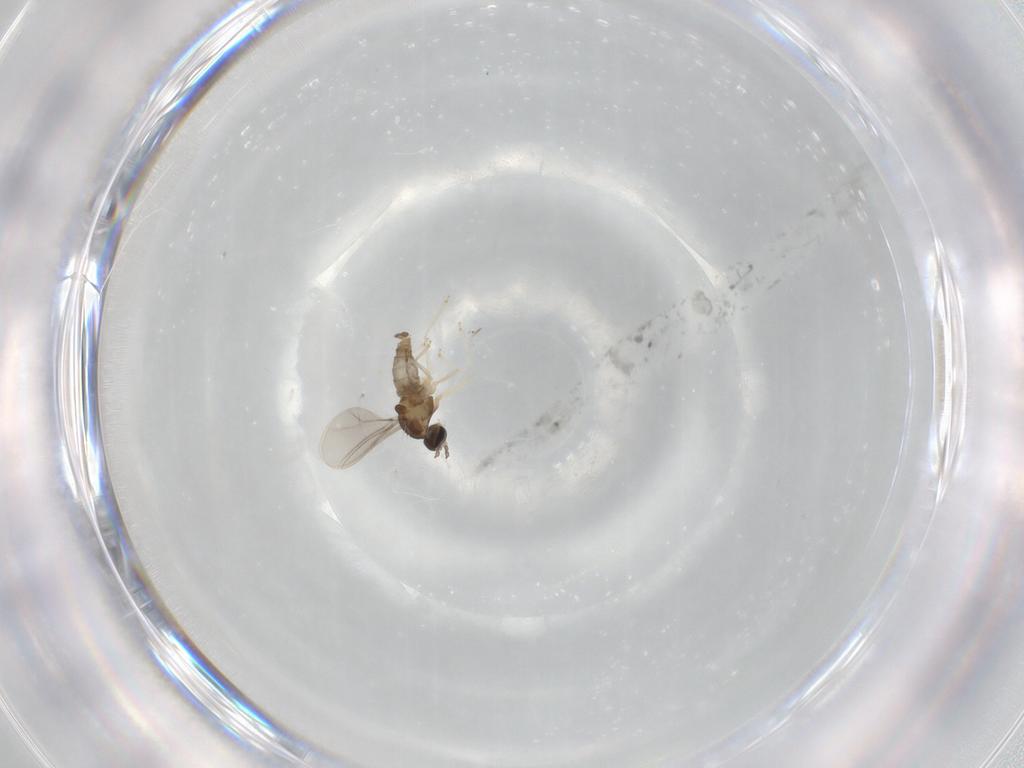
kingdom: Animalia
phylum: Arthropoda
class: Insecta
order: Diptera
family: Cecidomyiidae
